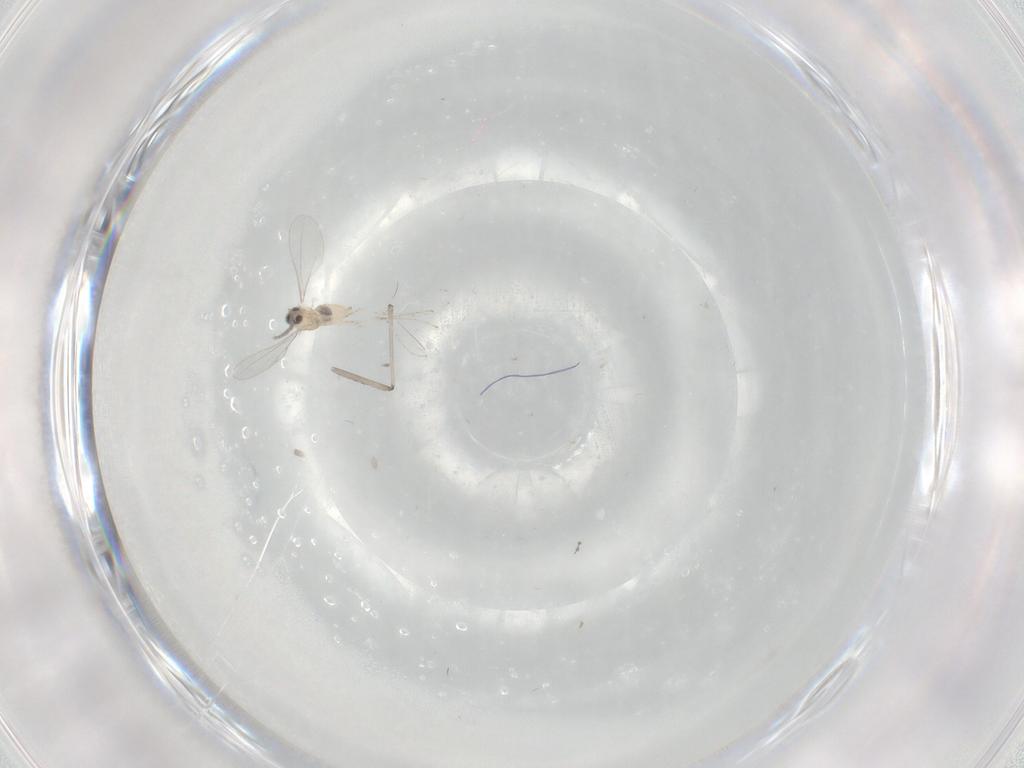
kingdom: Animalia
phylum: Arthropoda
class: Insecta
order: Diptera
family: Cecidomyiidae
